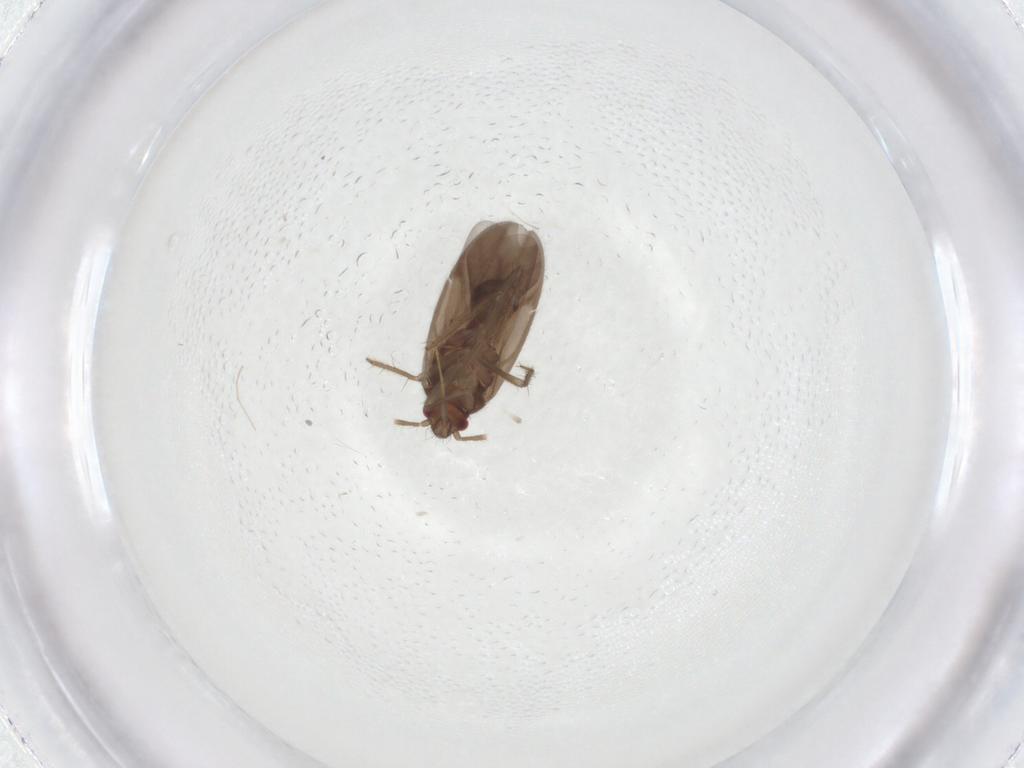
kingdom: Animalia
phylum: Arthropoda
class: Insecta
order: Hemiptera
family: Ceratocombidae
